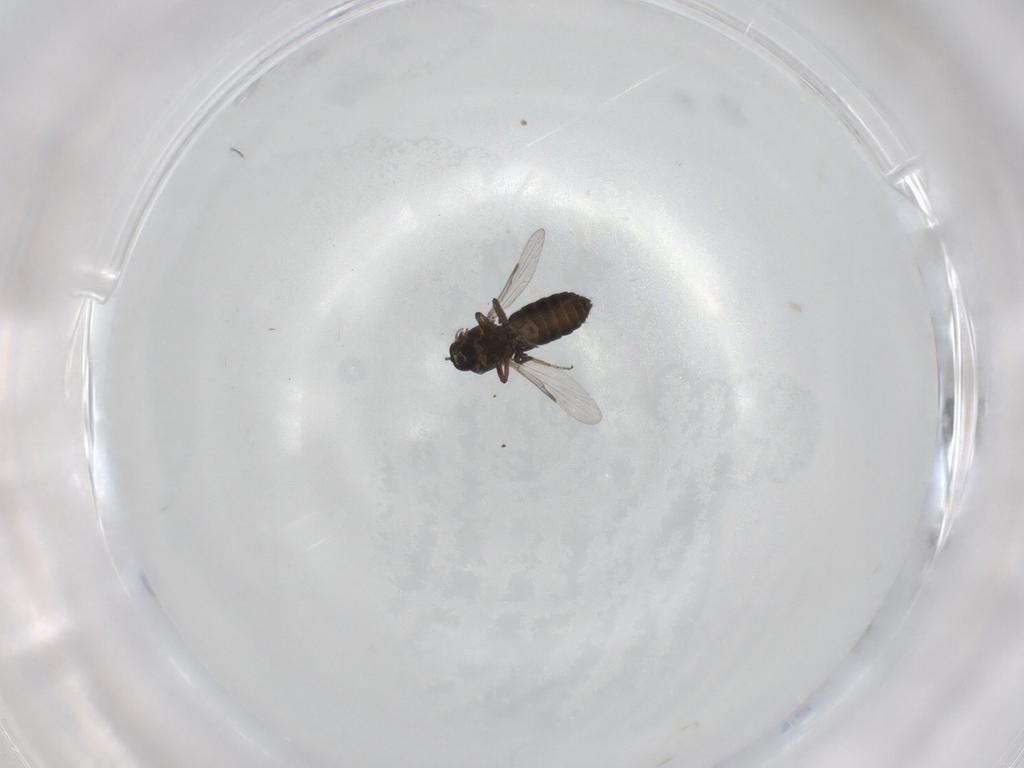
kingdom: Animalia
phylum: Arthropoda
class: Insecta
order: Diptera
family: Ceratopogonidae
